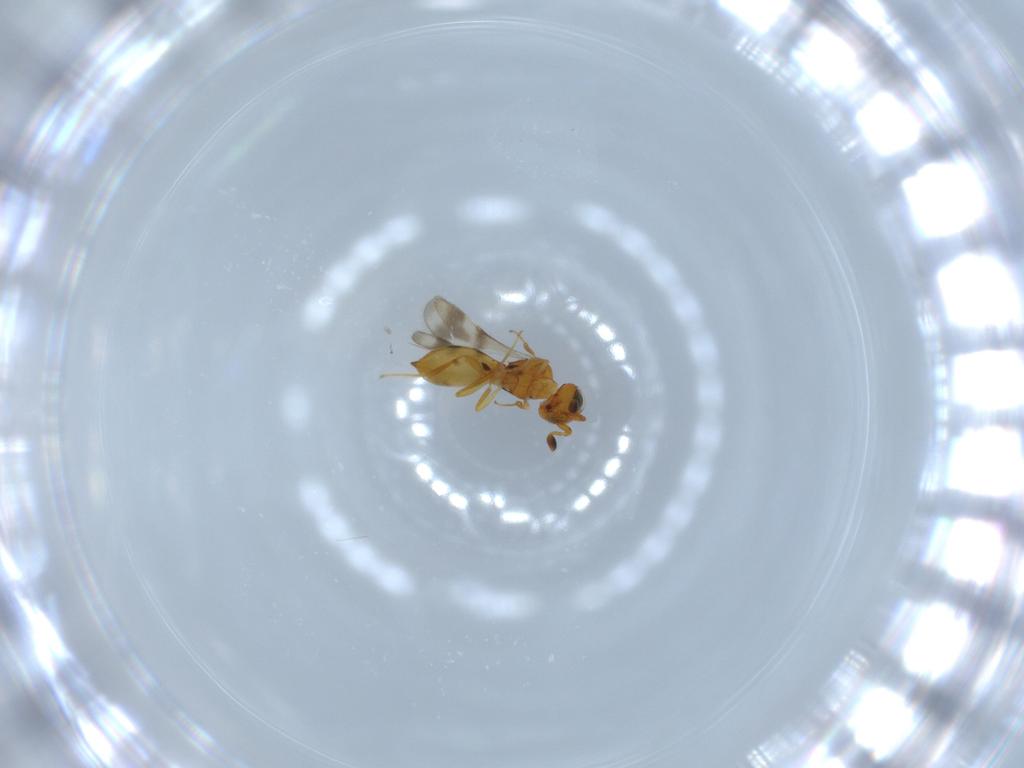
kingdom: Animalia
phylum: Arthropoda
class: Insecta
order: Hymenoptera
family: Scelionidae
